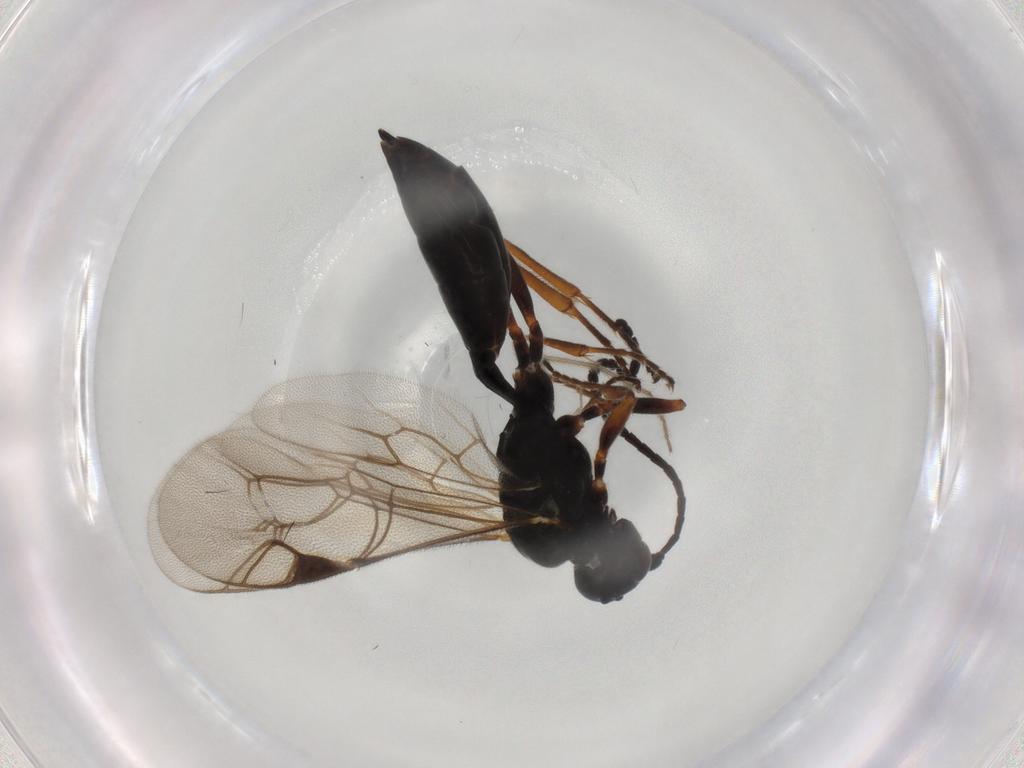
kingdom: Animalia
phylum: Arthropoda
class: Insecta
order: Hymenoptera
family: Ichneumonidae
